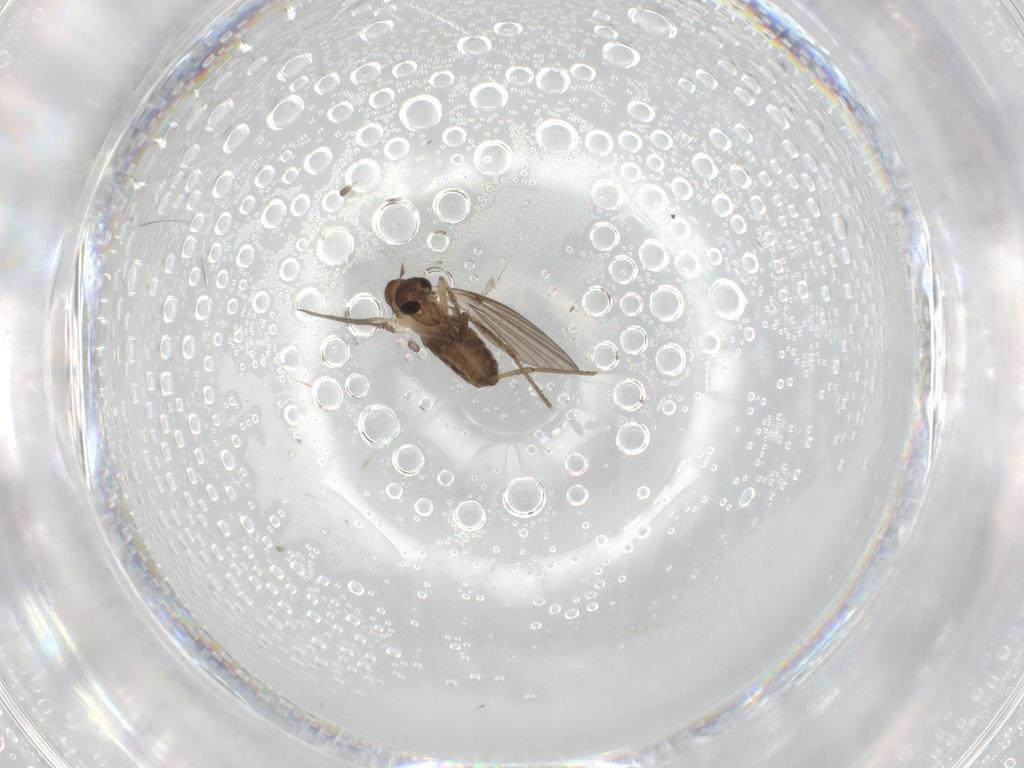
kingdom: Animalia
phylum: Arthropoda
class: Insecta
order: Diptera
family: Psychodidae
